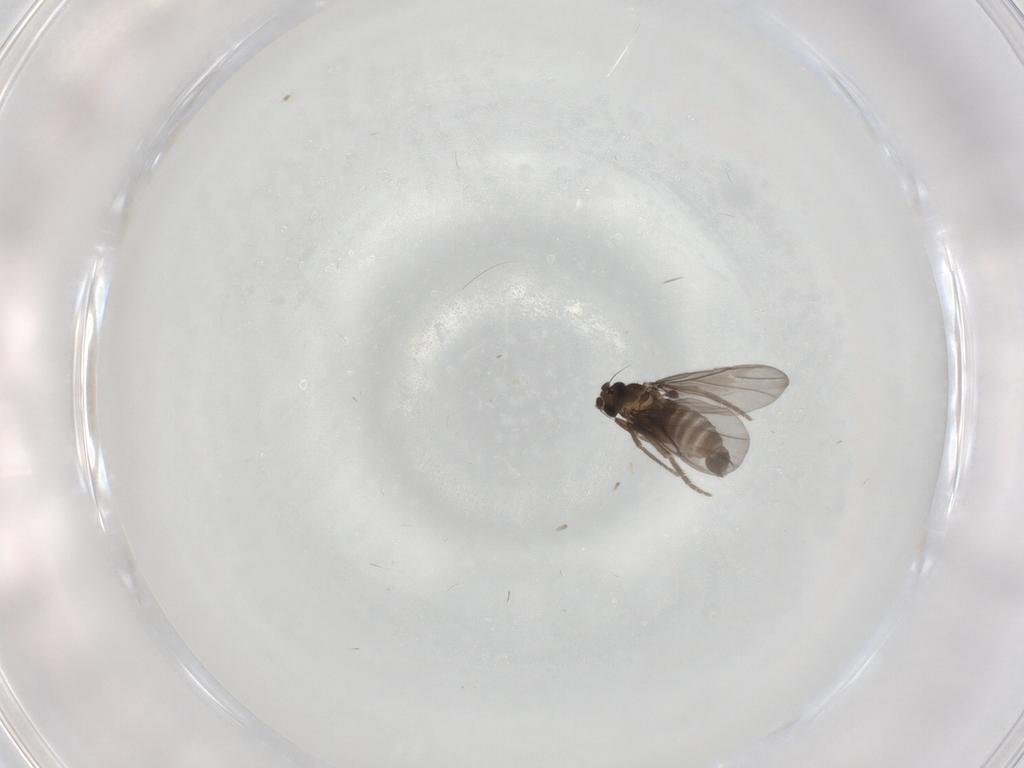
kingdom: Animalia
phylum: Arthropoda
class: Insecta
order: Diptera
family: Phoridae
